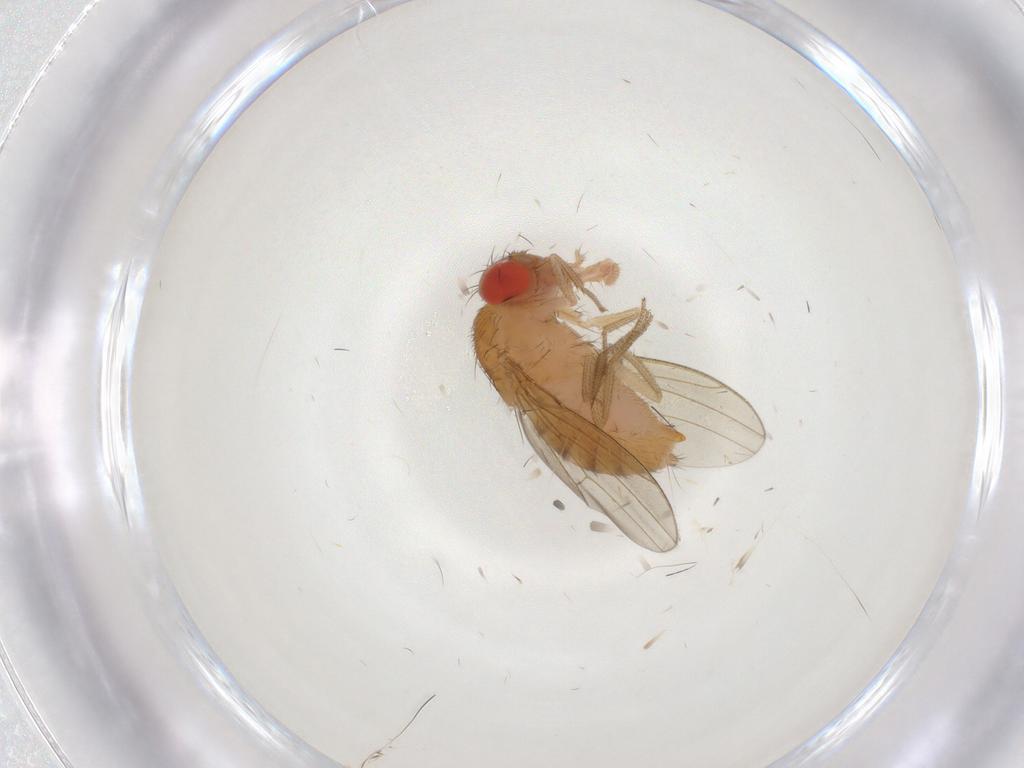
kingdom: Animalia
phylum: Arthropoda
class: Insecta
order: Diptera
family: Drosophilidae
